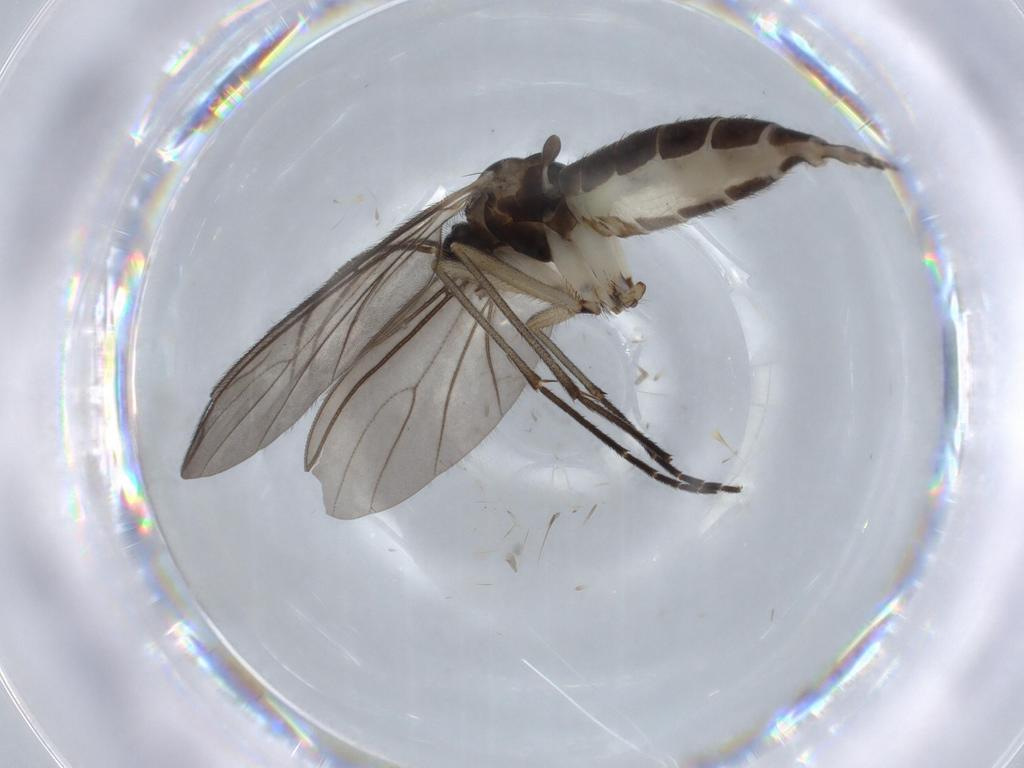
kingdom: Animalia
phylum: Arthropoda
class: Insecta
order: Diptera
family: Sciaridae
